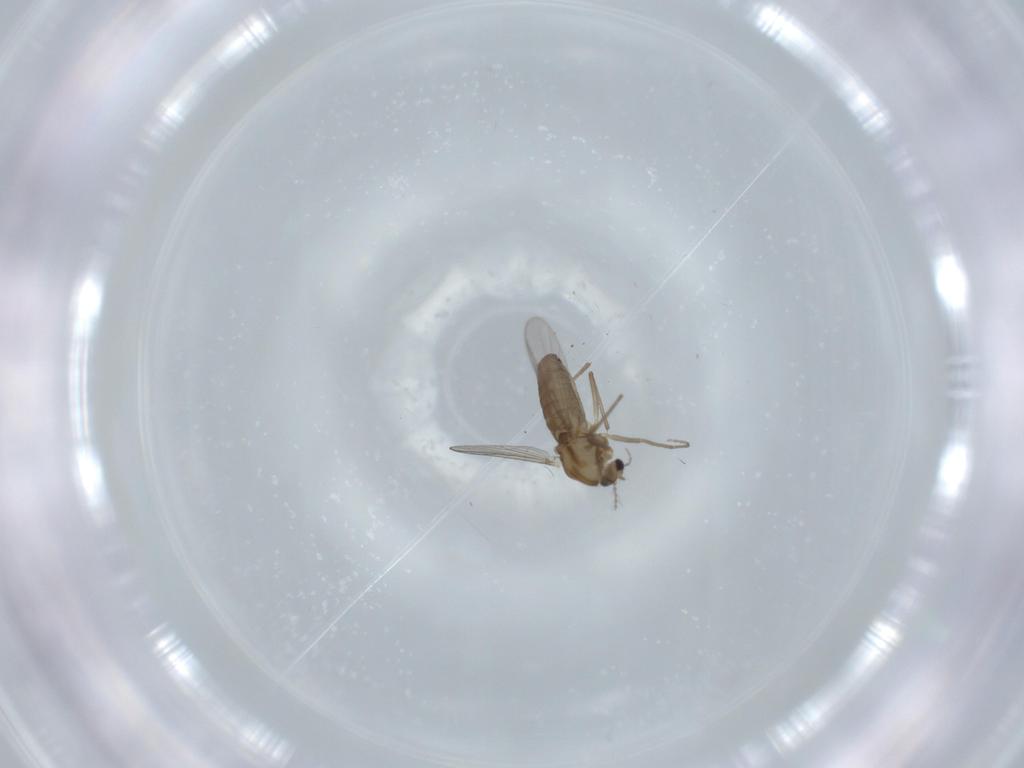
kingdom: Animalia
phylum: Arthropoda
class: Insecta
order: Diptera
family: Chironomidae
